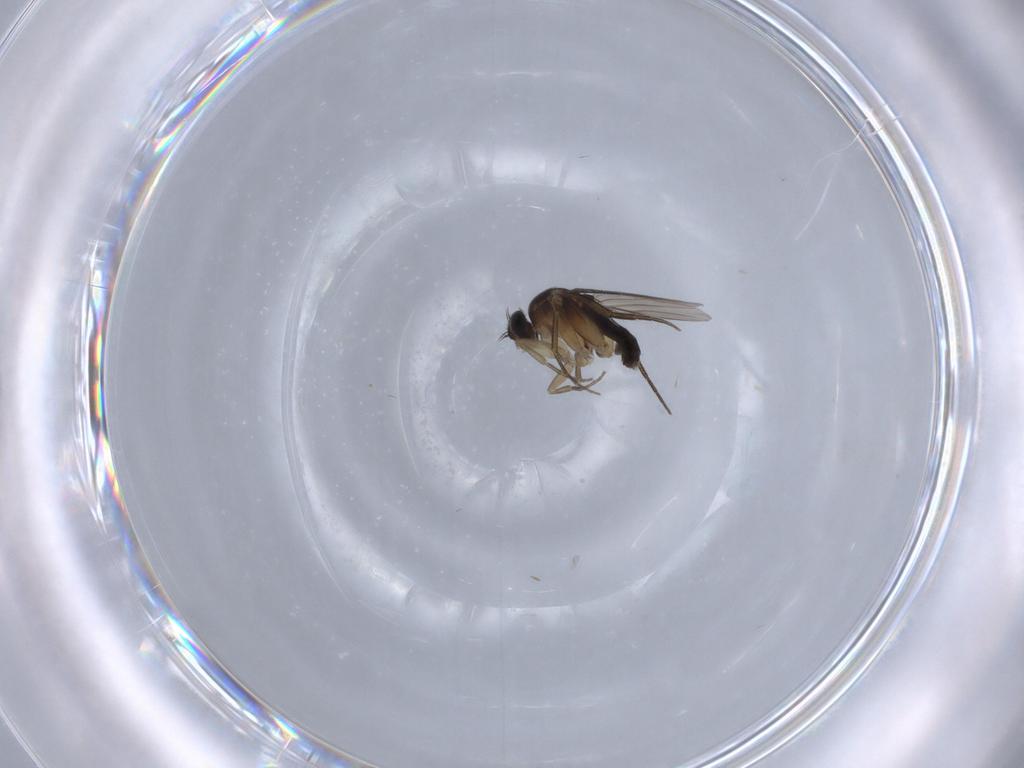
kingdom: Animalia
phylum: Arthropoda
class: Insecta
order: Diptera
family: Phoridae
